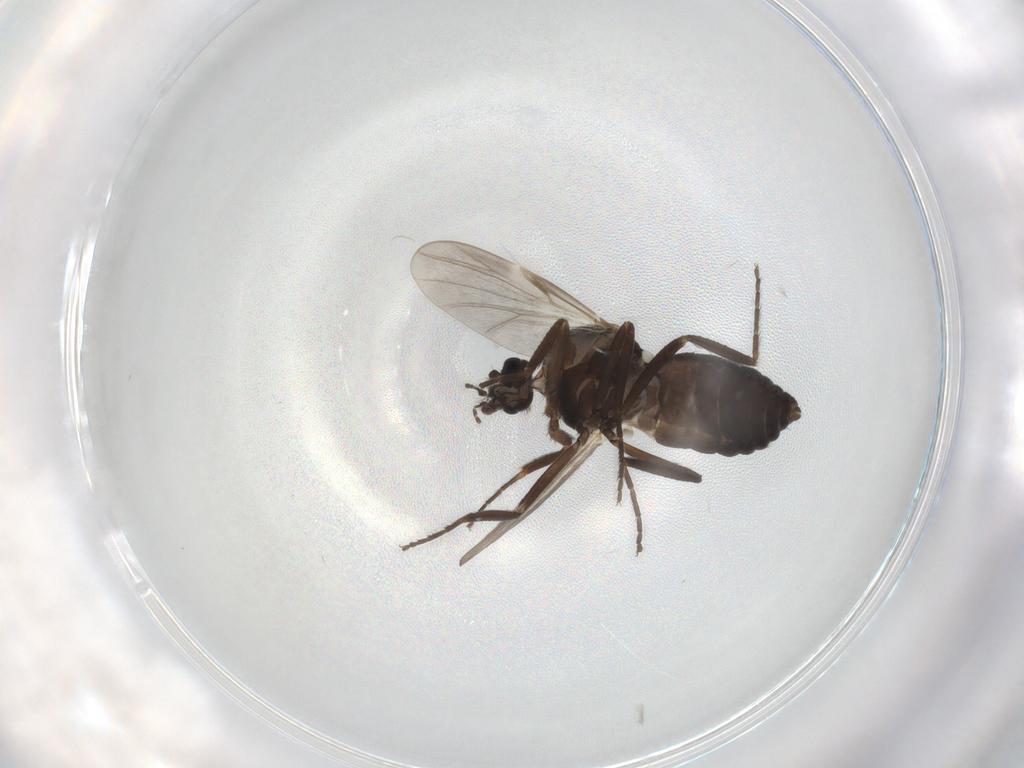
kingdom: Animalia
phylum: Arthropoda
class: Insecta
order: Diptera
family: Chironomidae
